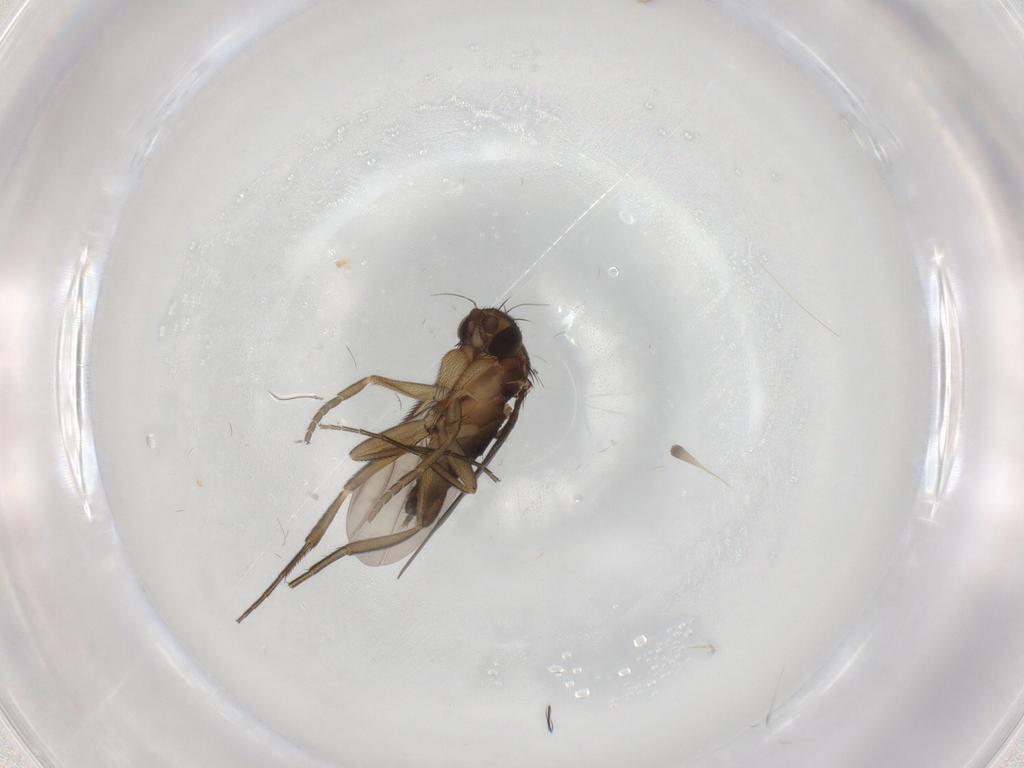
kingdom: Animalia
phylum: Arthropoda
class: Insecta
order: Diptera
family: Phoridae
